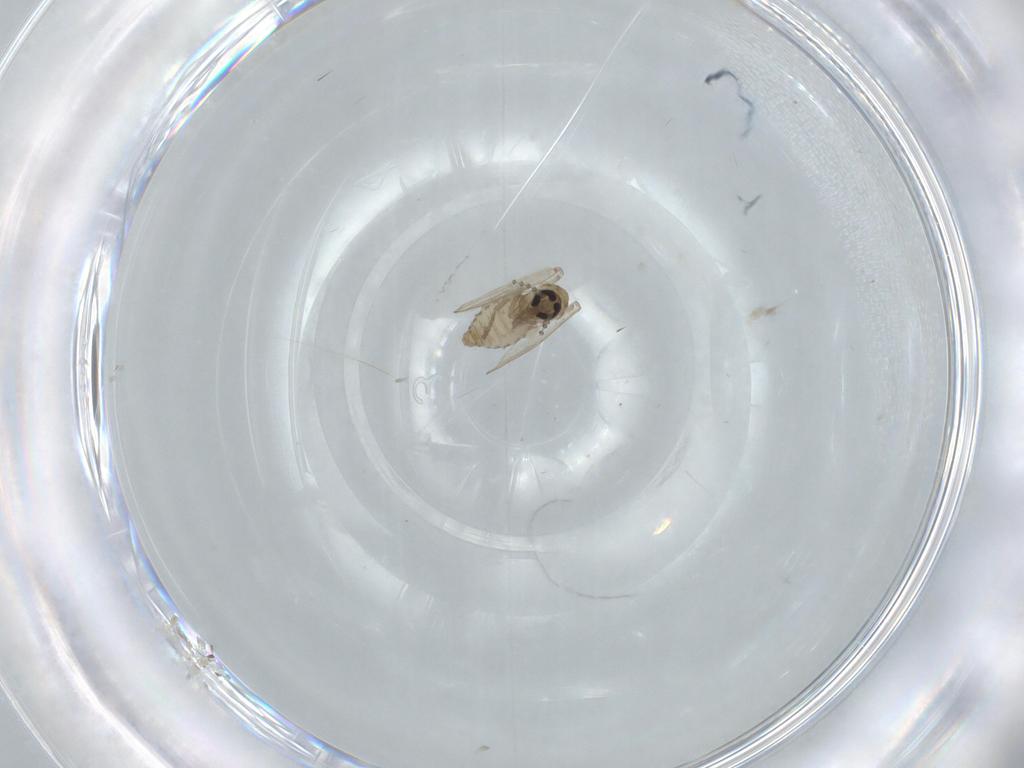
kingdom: Animalia
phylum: Arthropoda
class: Insecta
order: Diptera
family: Psychodidae
